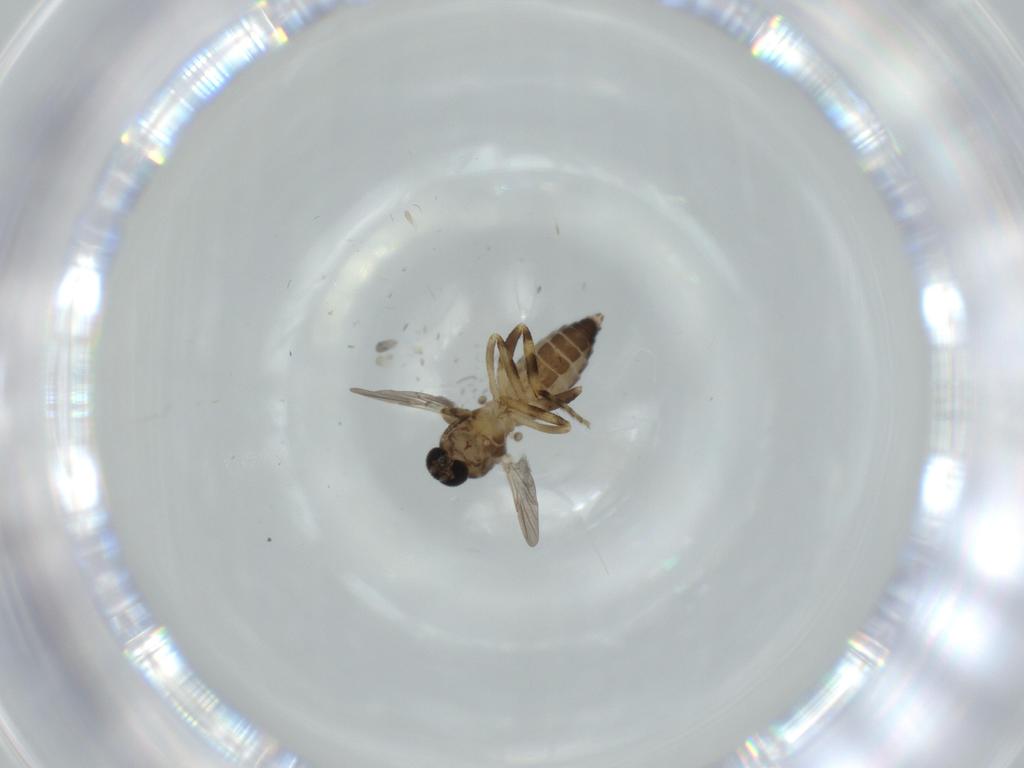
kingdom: Animalia
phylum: Arthropoda
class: Insecta
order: Diptera
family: Ceratopogonidae
